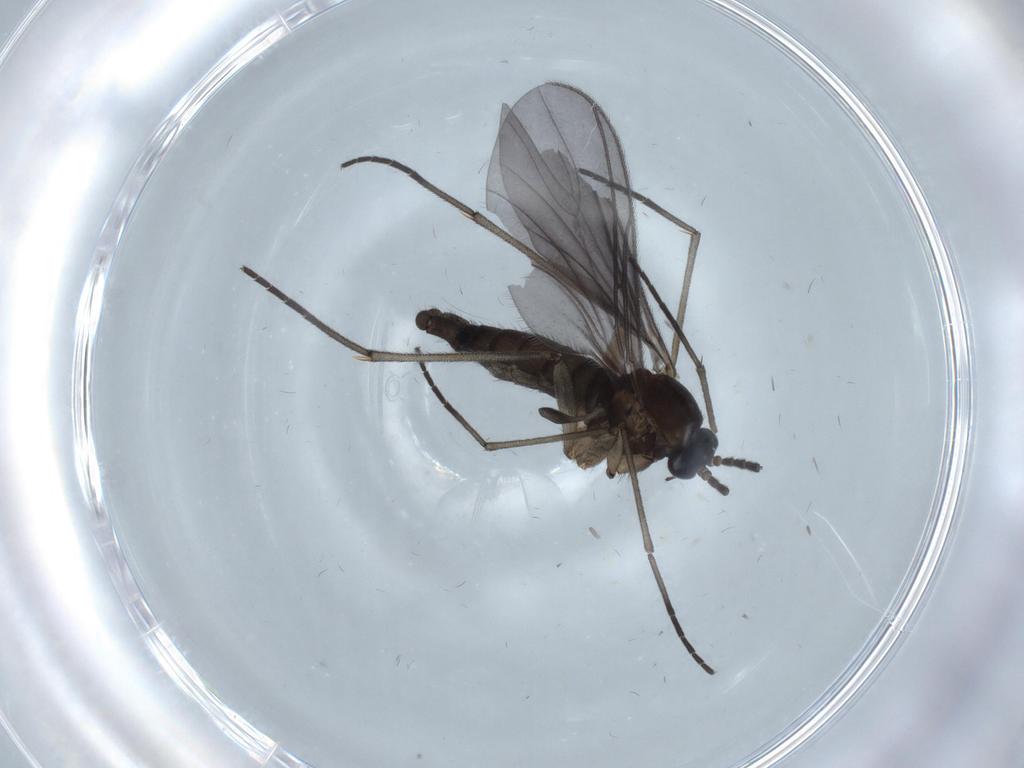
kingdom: Animalia
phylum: Arthropoda
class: Insecta
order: Diptera
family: Sciaridae
